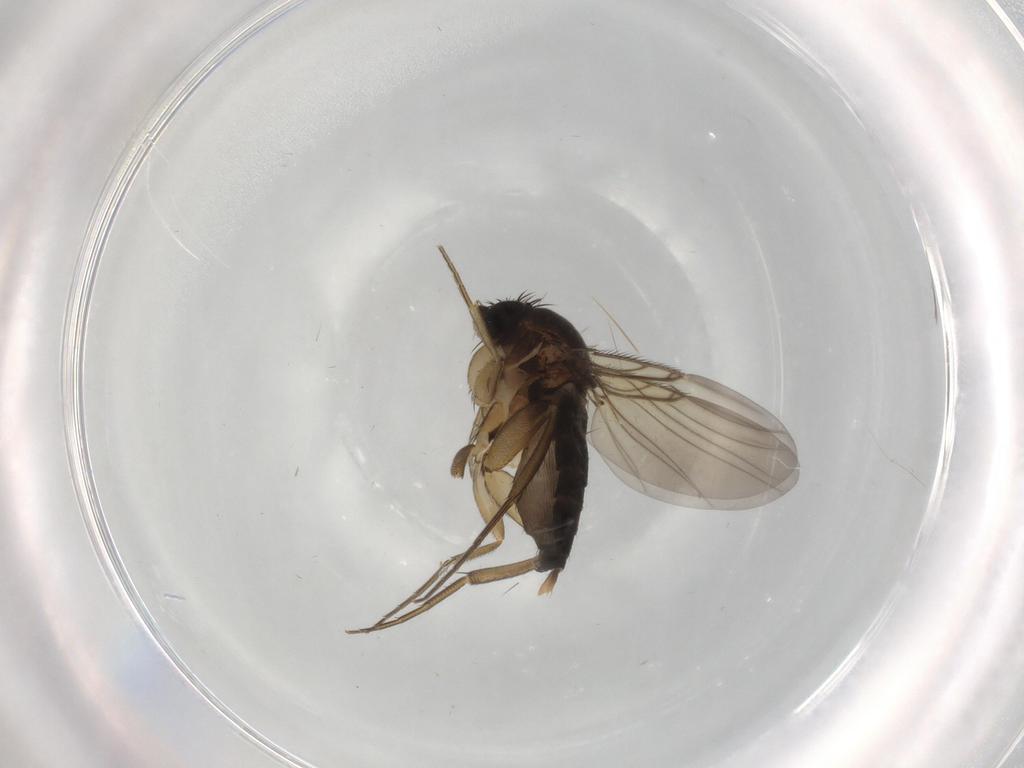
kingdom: Animalia
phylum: Arthropoda
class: Insecta
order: Diptera
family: Phoridae
